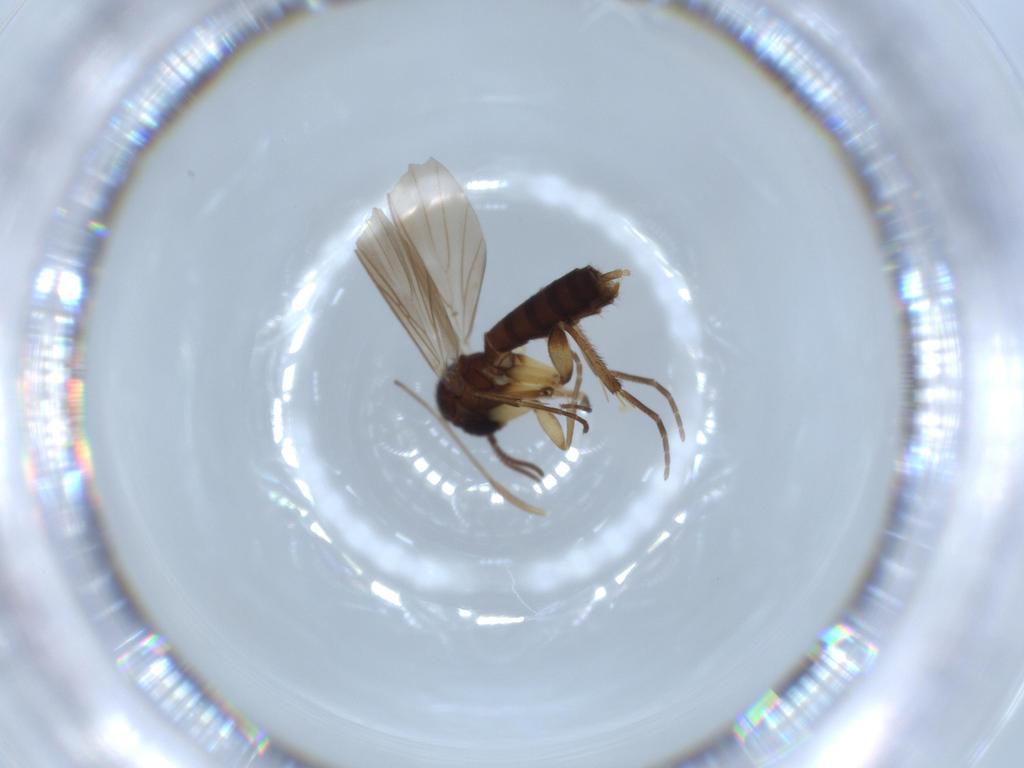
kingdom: Animalia
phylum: Arthropoda
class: Insecta
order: Diptera
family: Mycetophilidae
